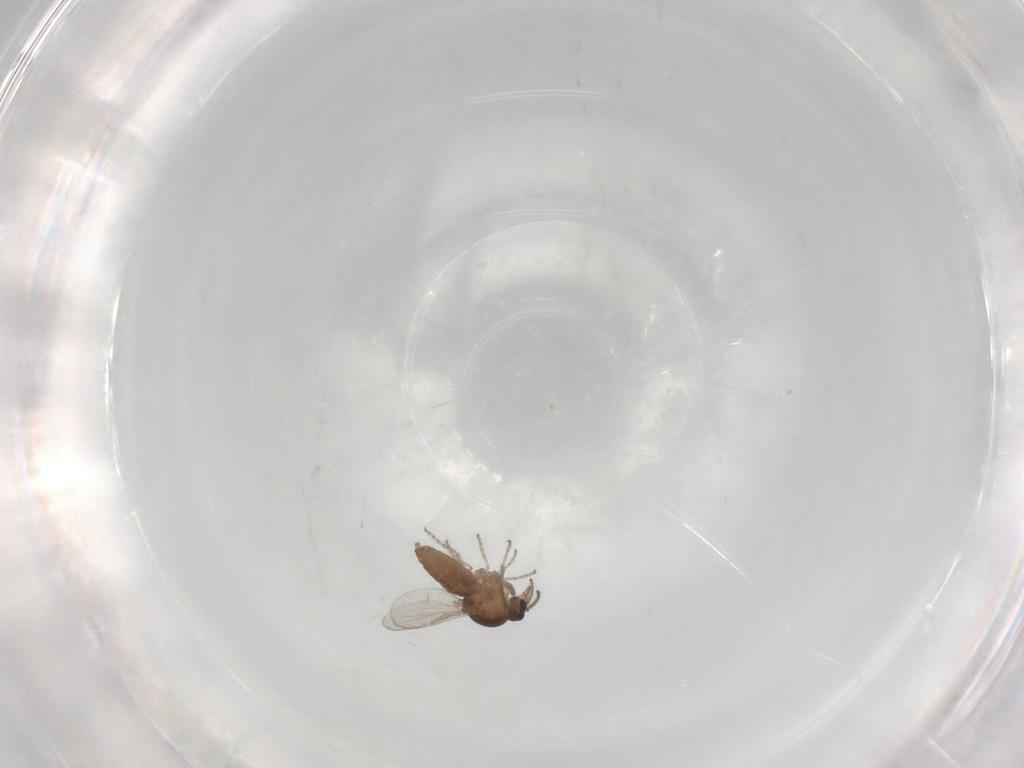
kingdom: Animalia
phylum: Arthropoda
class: Insecta
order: Diptera
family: Ceratopogonidae
